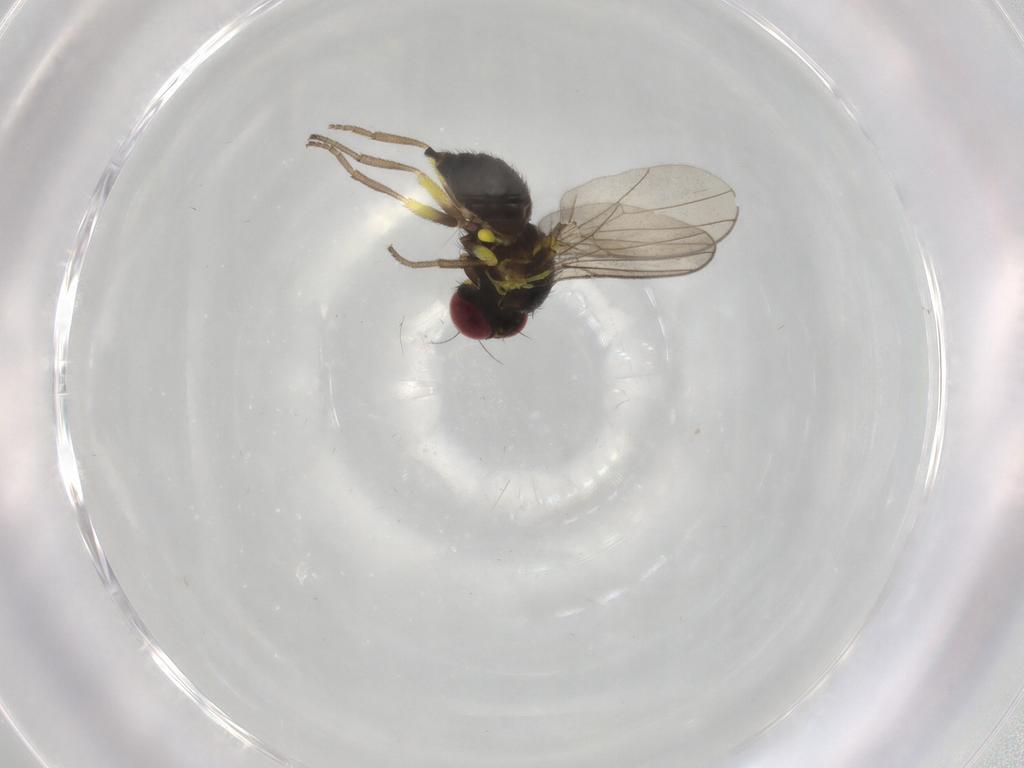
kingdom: Animalia
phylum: Arthropoda
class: Insecta
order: Diptera
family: Agromyzidae
